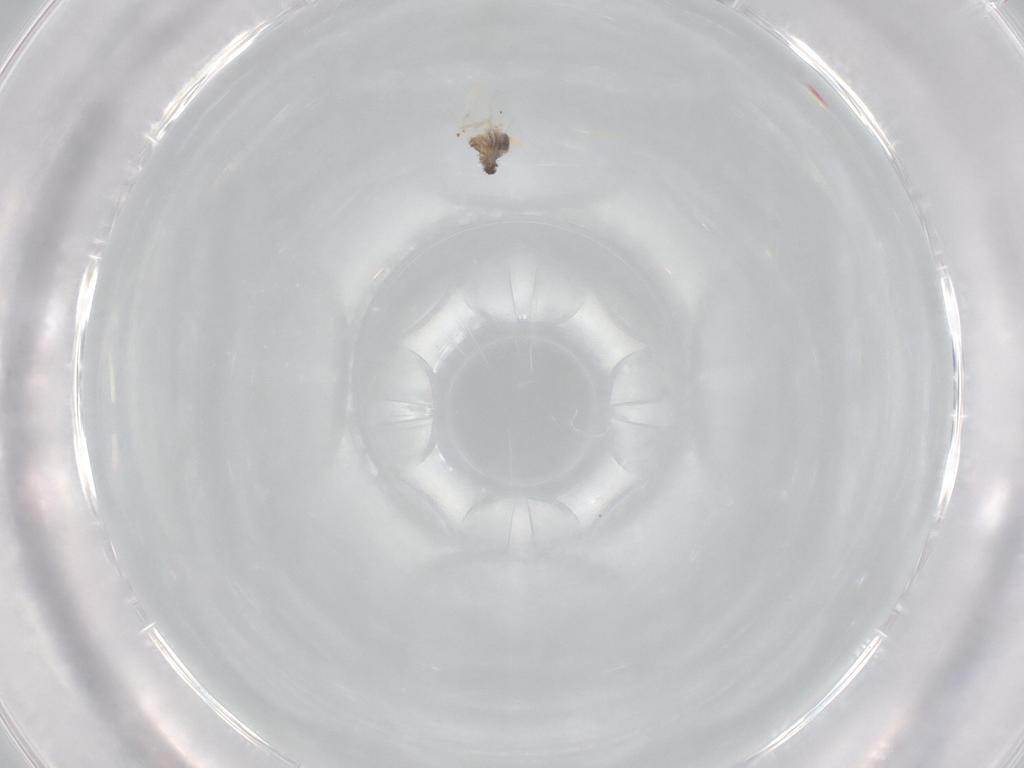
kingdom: Animalia
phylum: Arthropoda
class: Insecta
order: Diptera
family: Cecidomyiidae
